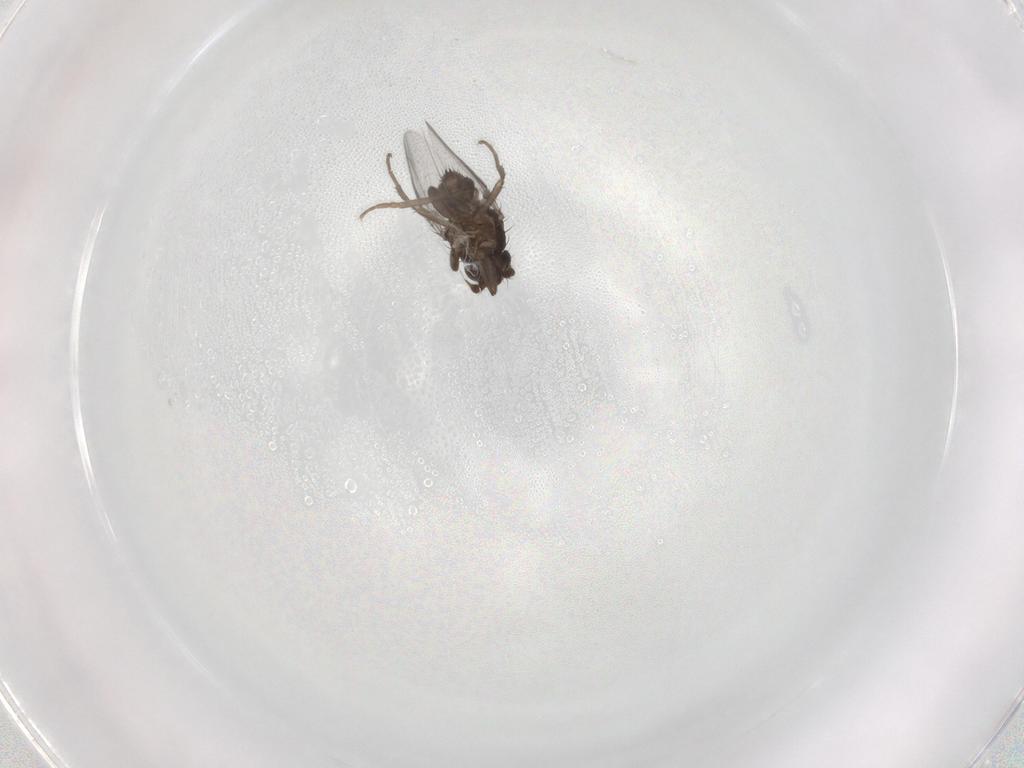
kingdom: Animalia
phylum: Arthropoda
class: Insecta
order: Diptera
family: Sphaeroceridae
